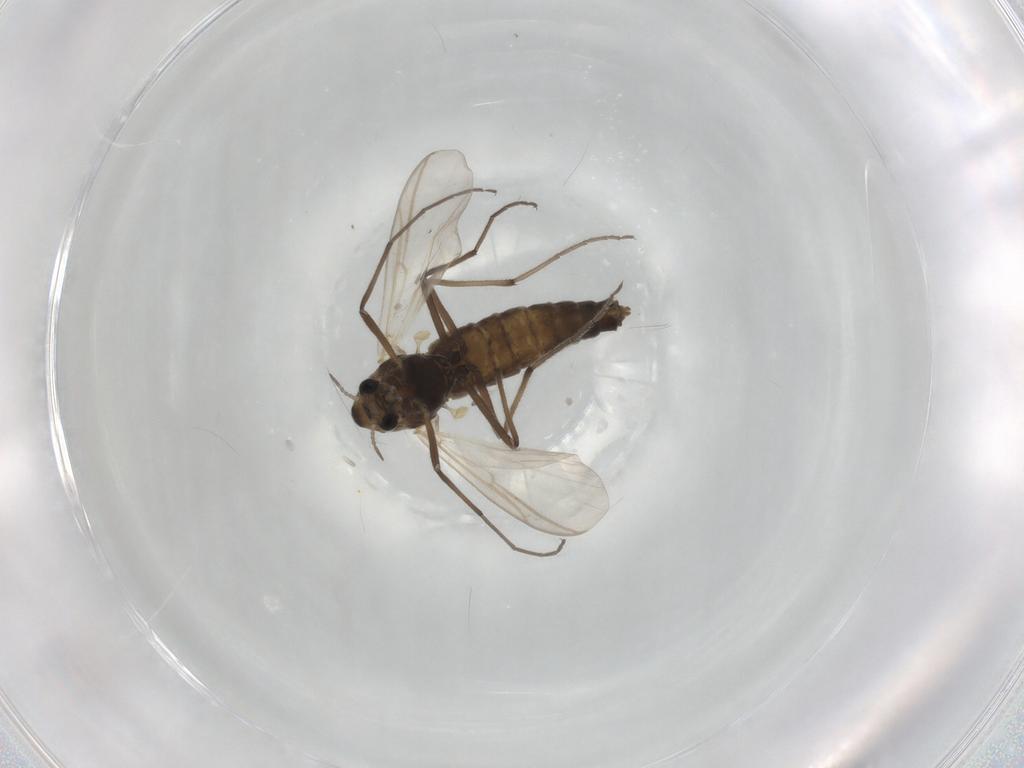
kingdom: Animalia
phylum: Arthropoda
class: Insecta
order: Diptera
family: Muscidae
